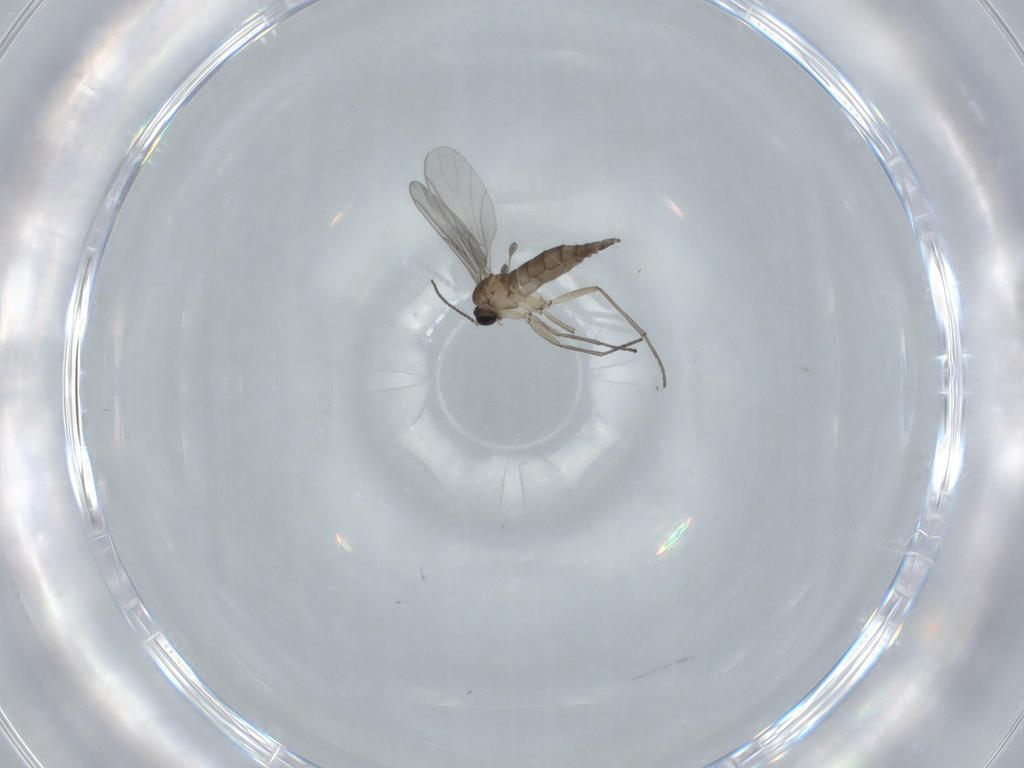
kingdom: Animalia
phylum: Arthropoda
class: Insecta
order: Diptera
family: Sciaridae
